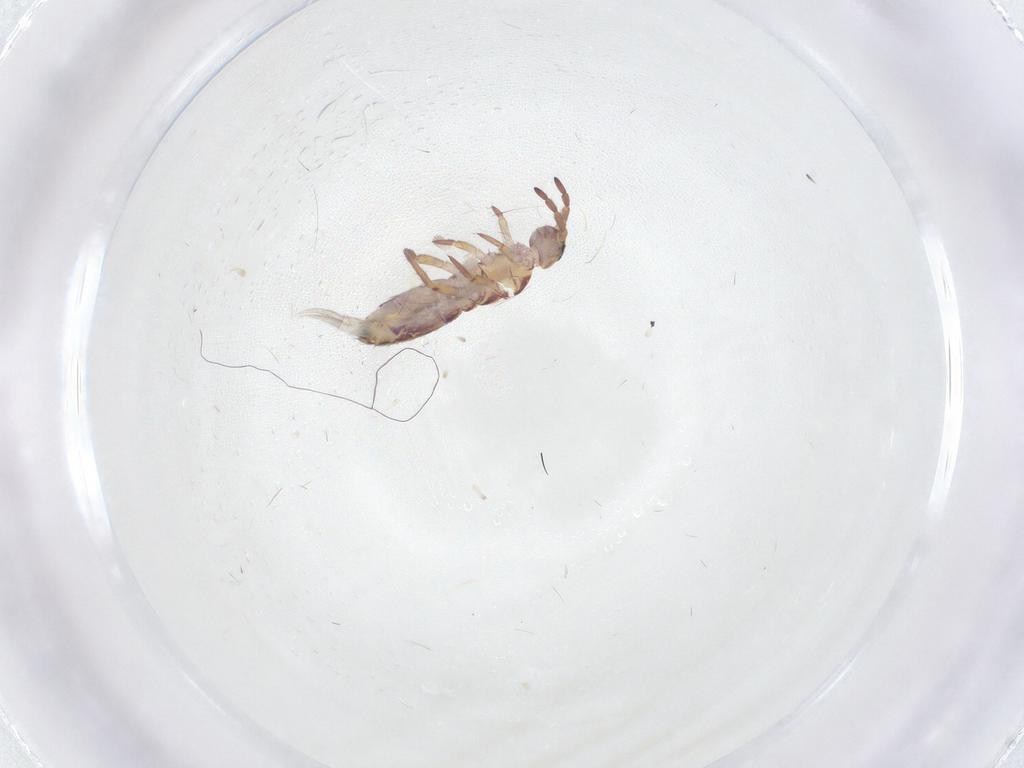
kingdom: Animalia
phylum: Arthropoda
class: Collembola
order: Entomobryomorpha
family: Isotomidae
